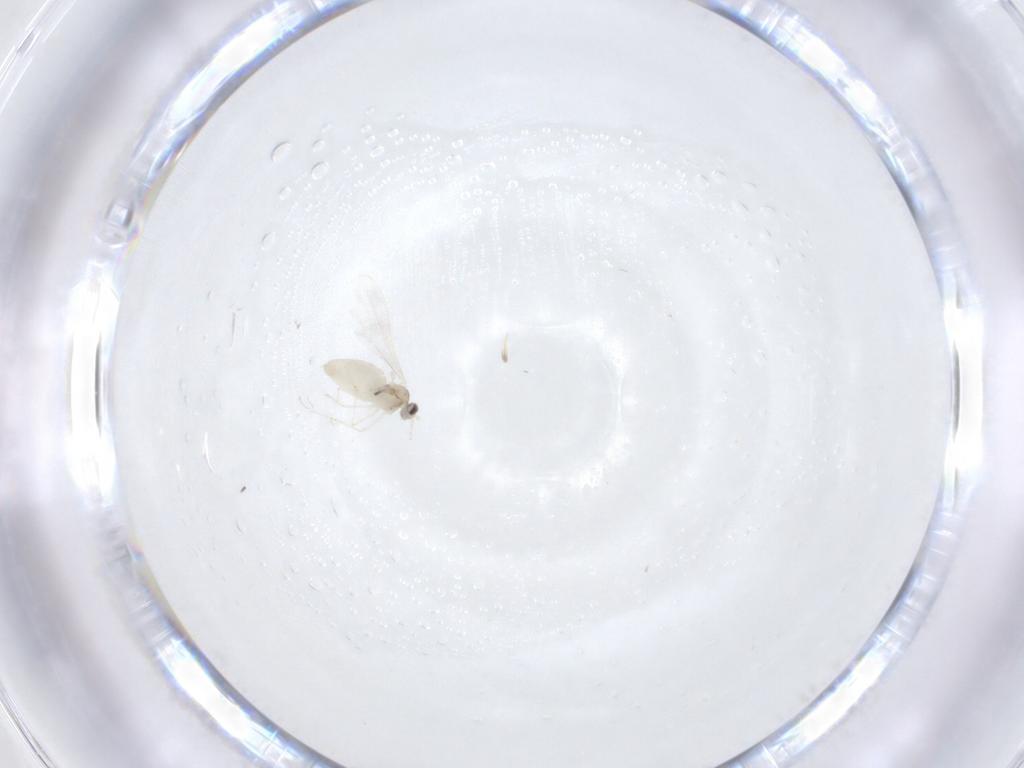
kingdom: Animalia
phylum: Arthropoda
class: Insecta
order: Diptera
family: Cecidomyiidae
